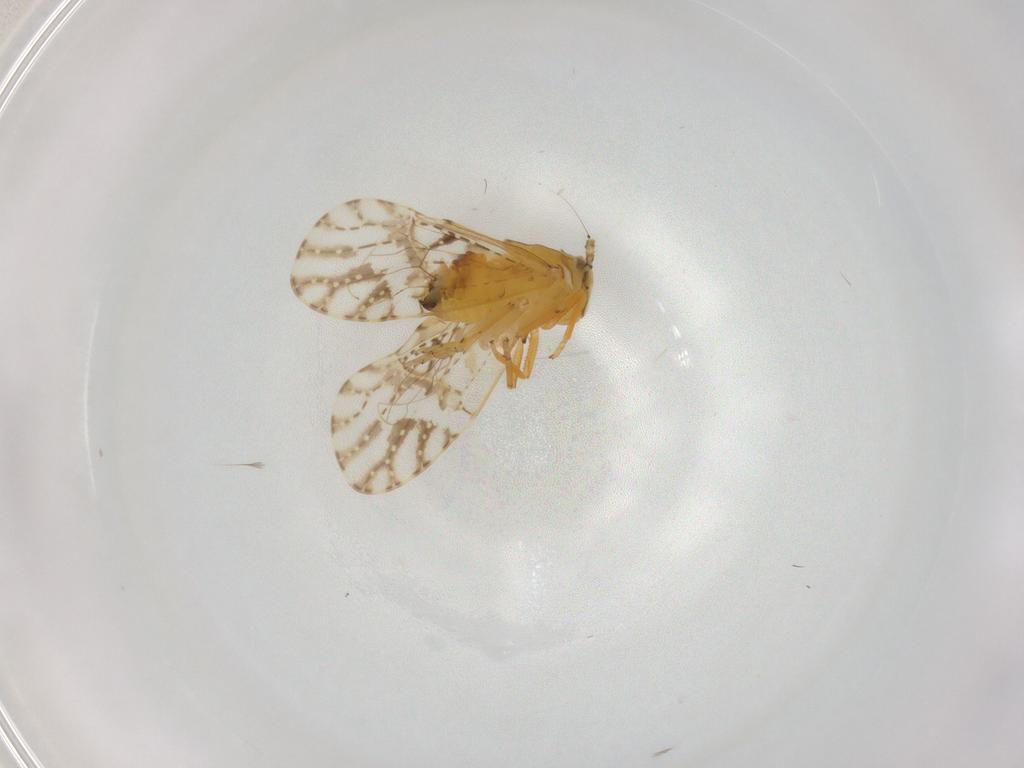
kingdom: Animalia
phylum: Arthropoda
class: Insecta
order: Hemiptera
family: Delphacidae
